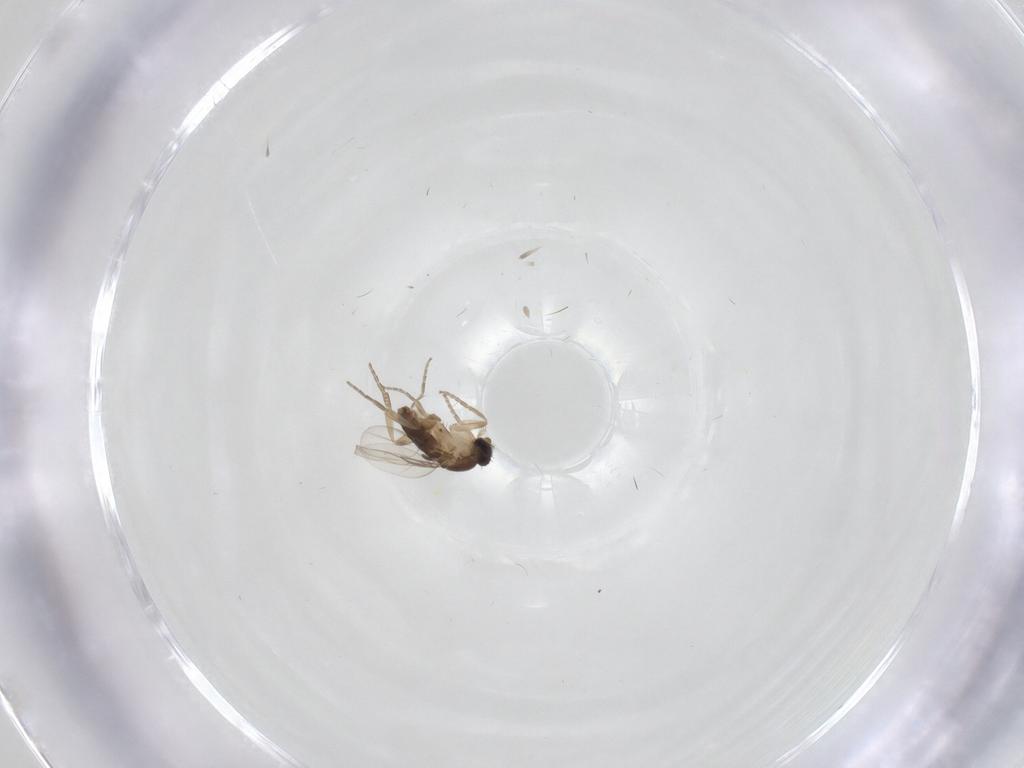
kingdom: Animalia
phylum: Arthropoda
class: Insecta
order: Diptera
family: Phoridae
